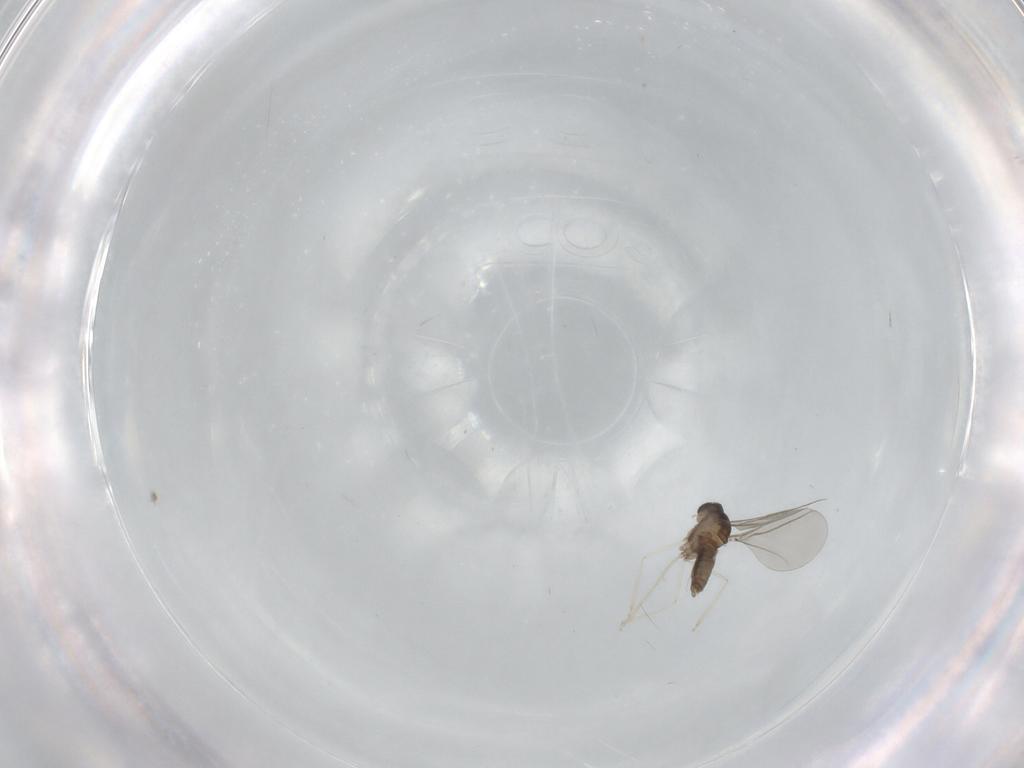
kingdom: Animalia
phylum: Arthropoda
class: Insecta
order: Diptera
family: Cecidomyiidae
